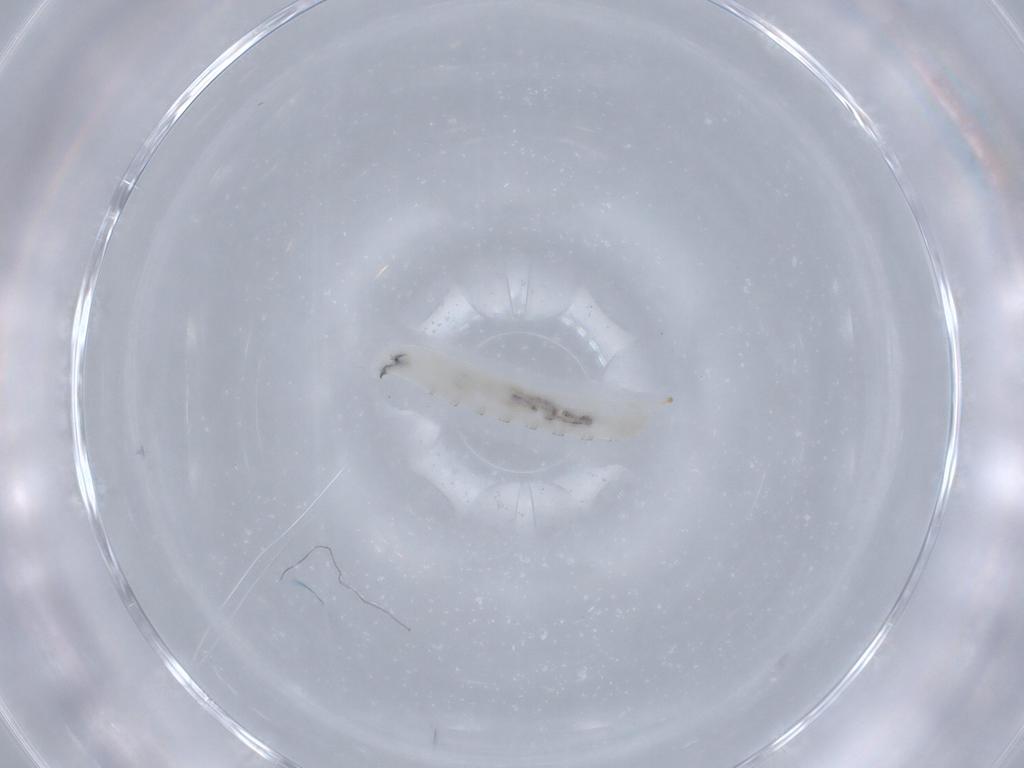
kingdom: Animalia
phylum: Arthropoda
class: Insecta
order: Diptera
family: Drosophilidae
